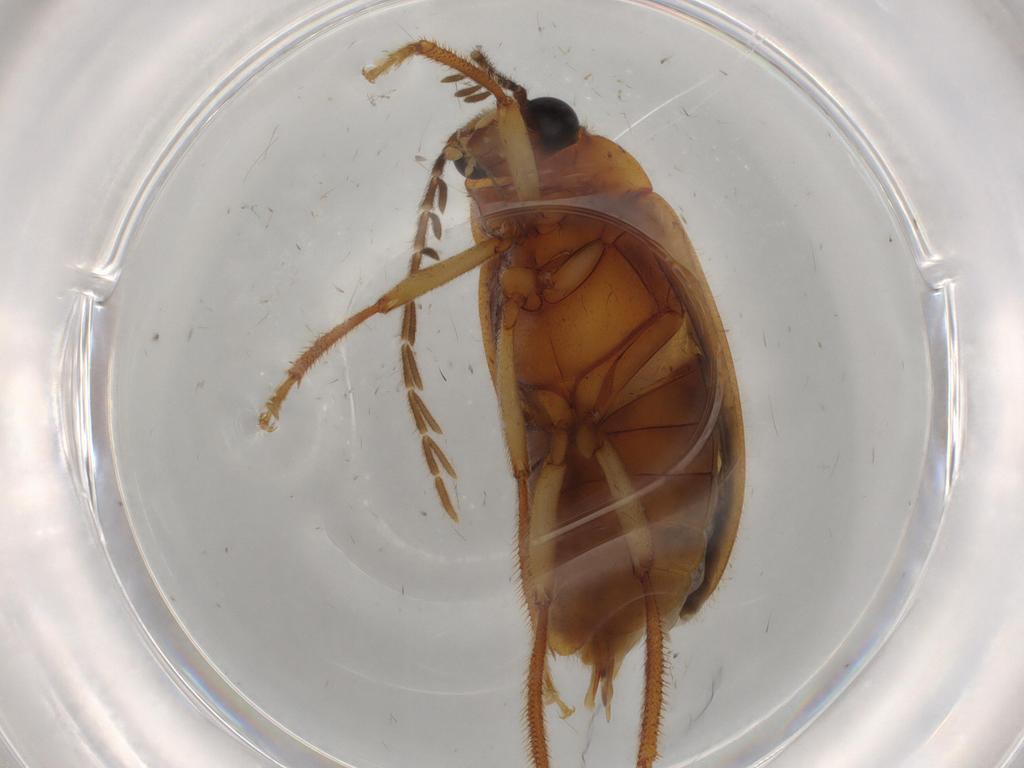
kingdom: Animalia
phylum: Arthropoda
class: Insecta
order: Coleoptera
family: Ptilodactylidae
